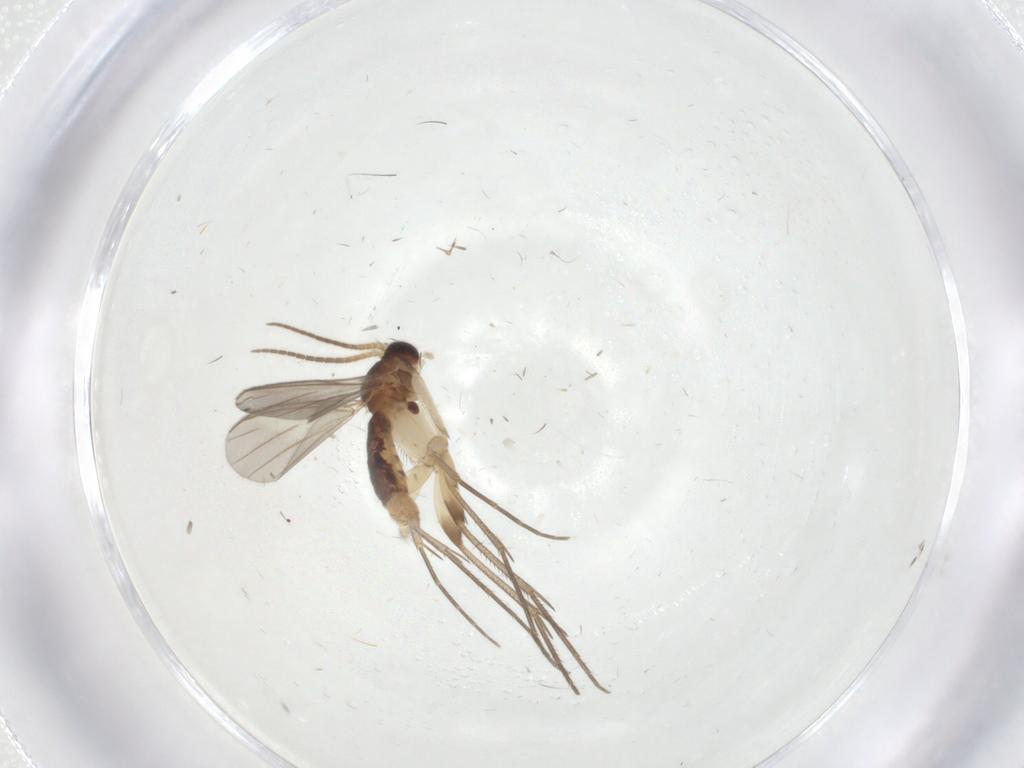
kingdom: Animalia
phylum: Arthropoda
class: Insecta
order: Diptera
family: Mycetophilidae
